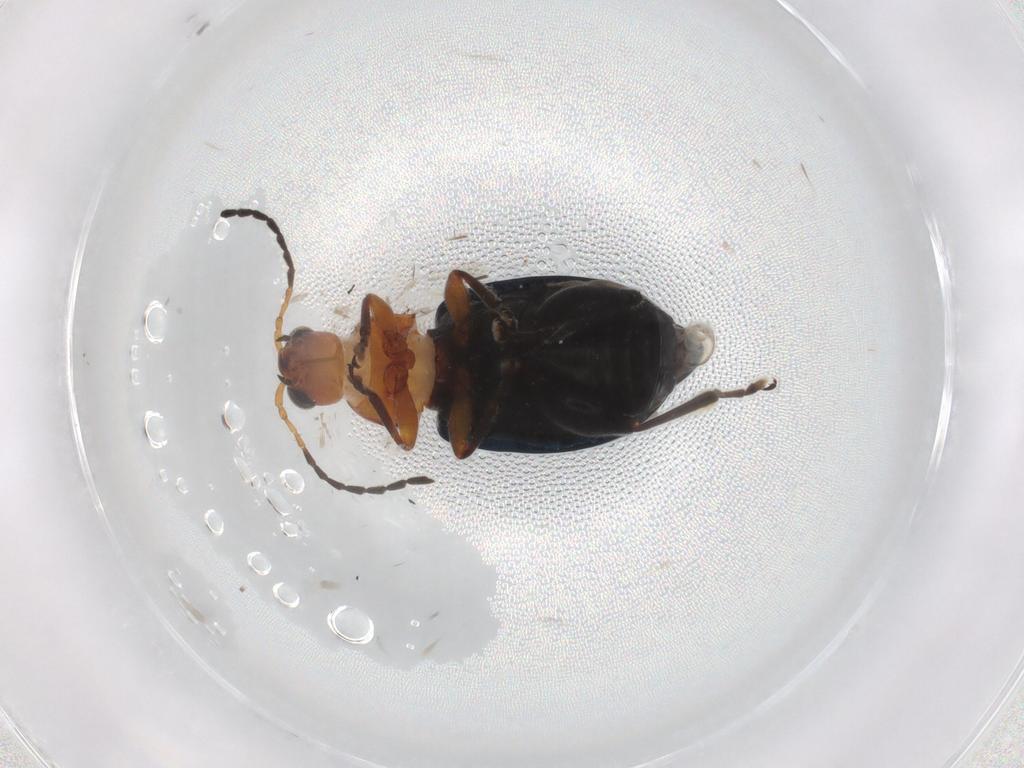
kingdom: Animalia
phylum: Arthropoda
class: Insecta
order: Coleoptera
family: Chrysomelidae
